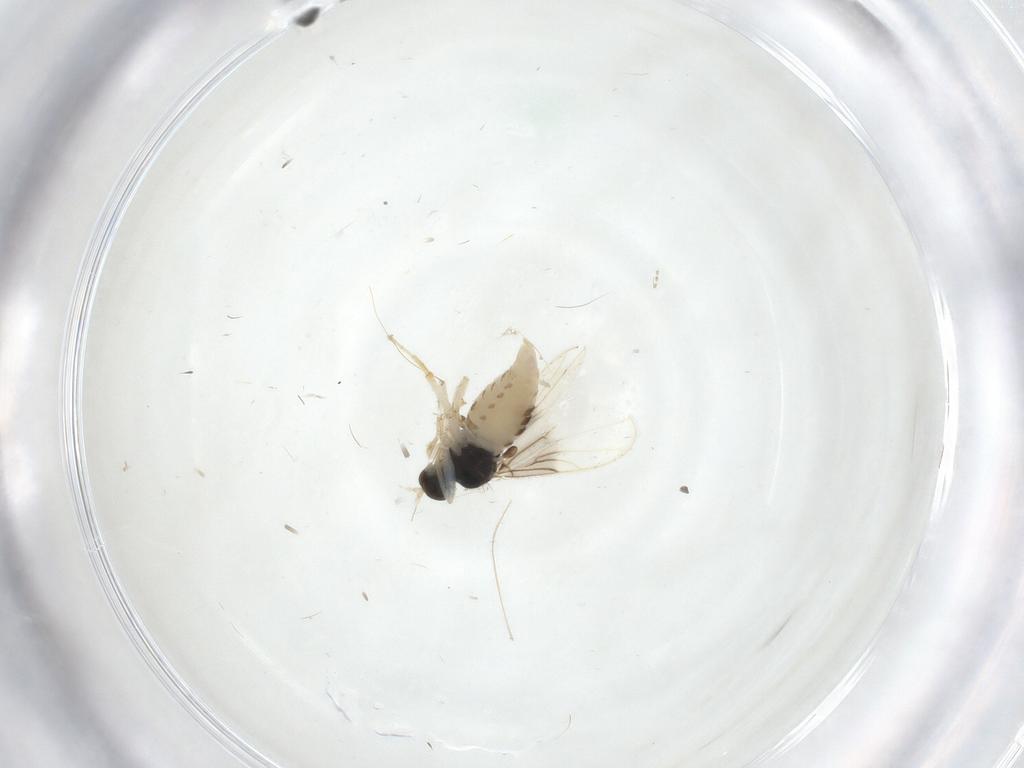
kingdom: Animalia
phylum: Arthropoda
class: Insecta
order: Diptera
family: Hybotidae
